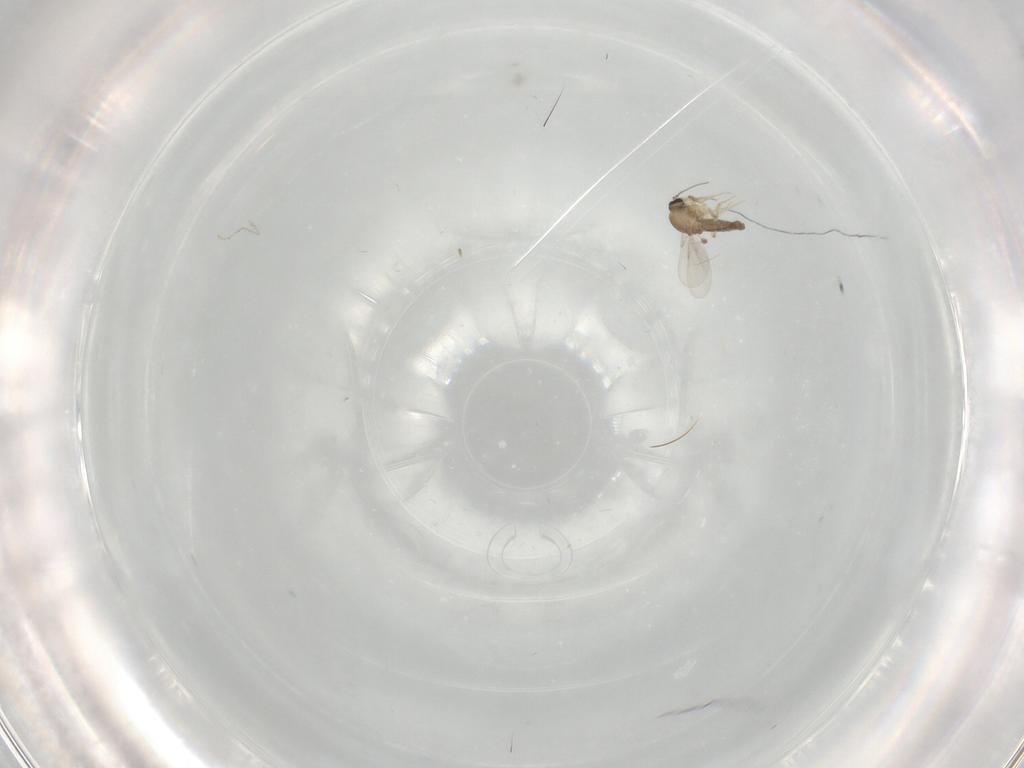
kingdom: Animalia
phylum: Arthropoda
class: Insecta
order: Diptera
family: Cecidomyiidae
